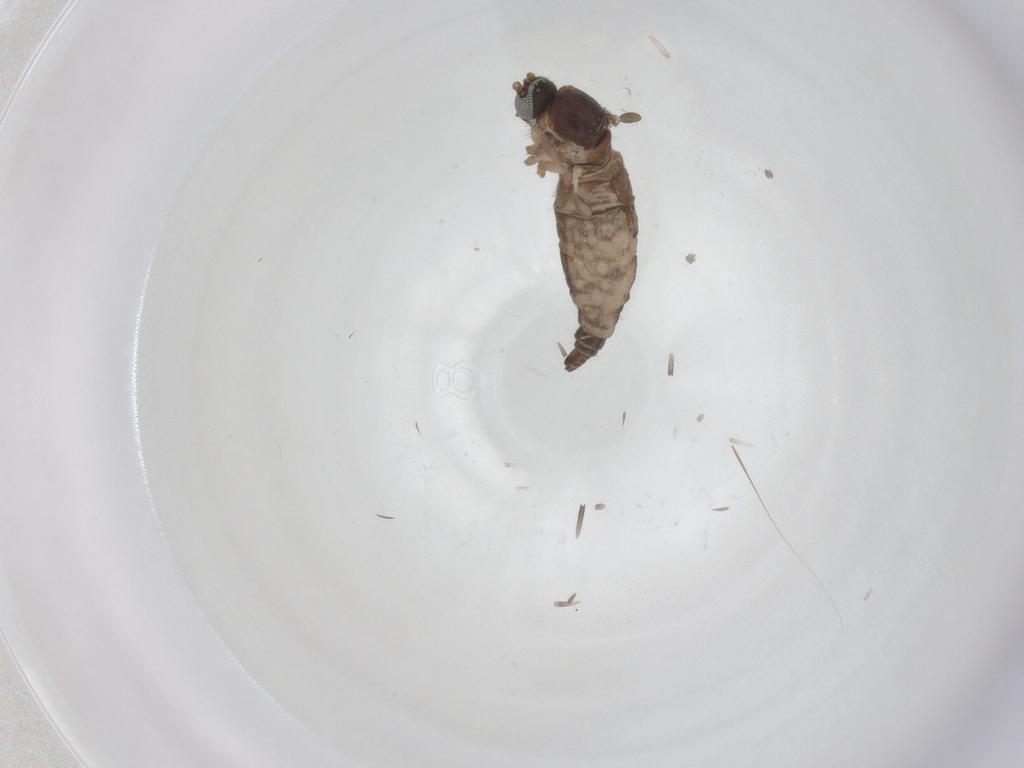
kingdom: Animalia
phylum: Arthropoda
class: Insecta
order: Diptera
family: Sciaridae
